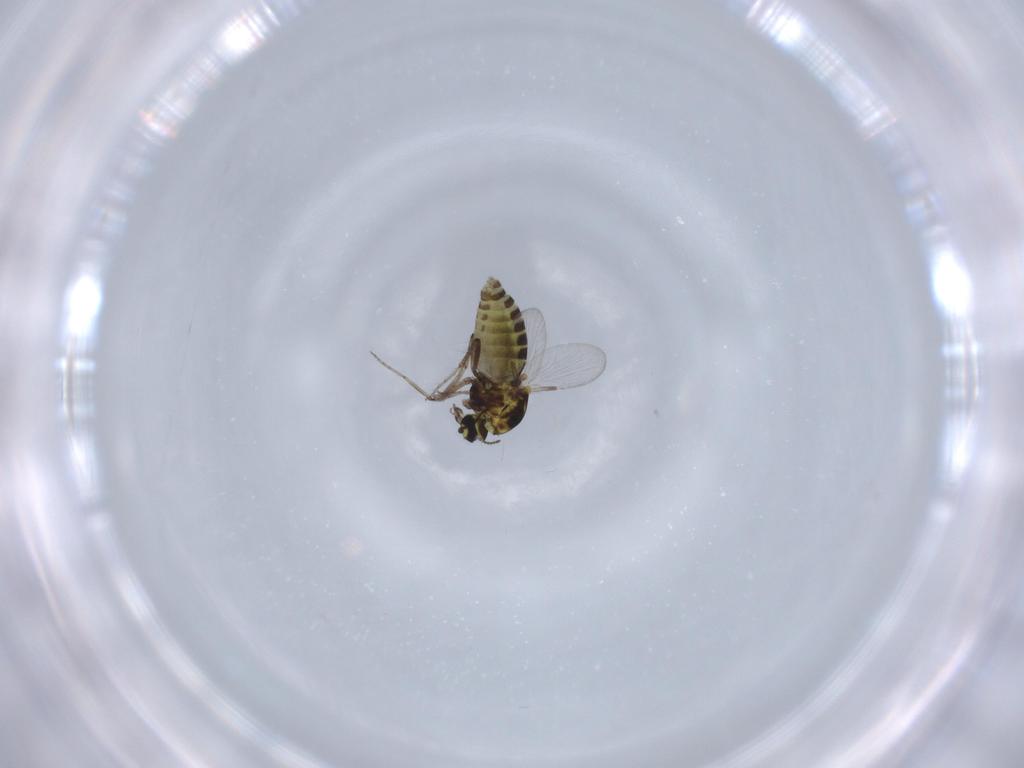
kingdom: Animalia
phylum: Arthropoda
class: Insecta
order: Diptera
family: Ceratopogonidae
